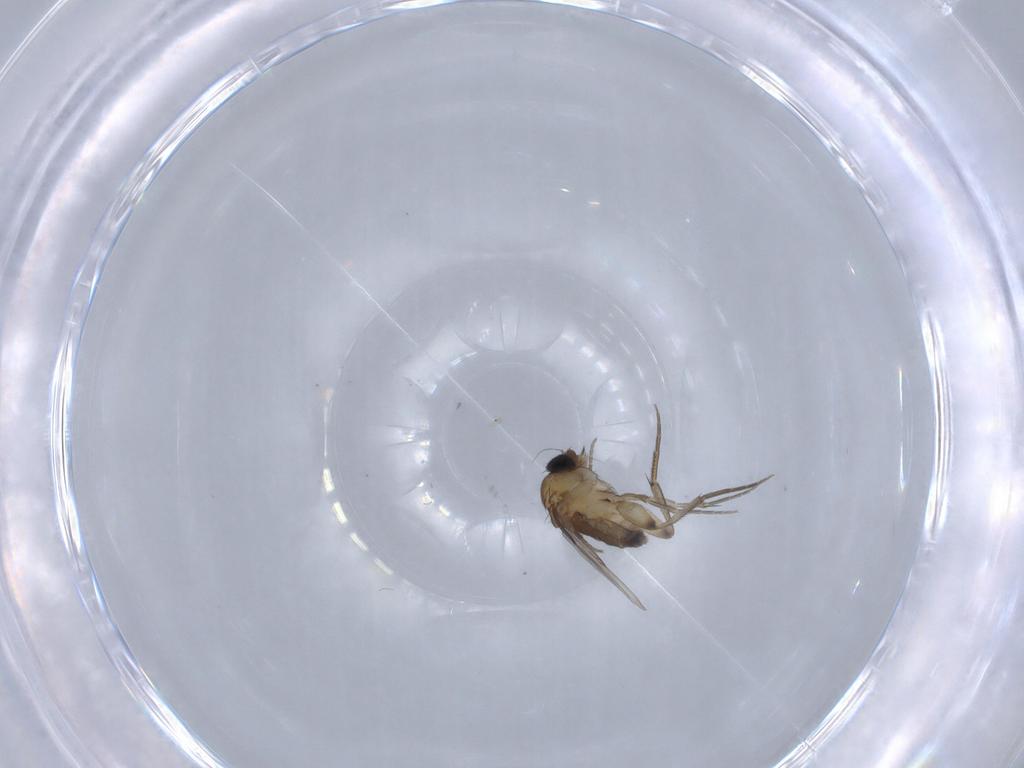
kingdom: Animalia
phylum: Arthropoda
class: Insecta
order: Diptera
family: Phoridae
